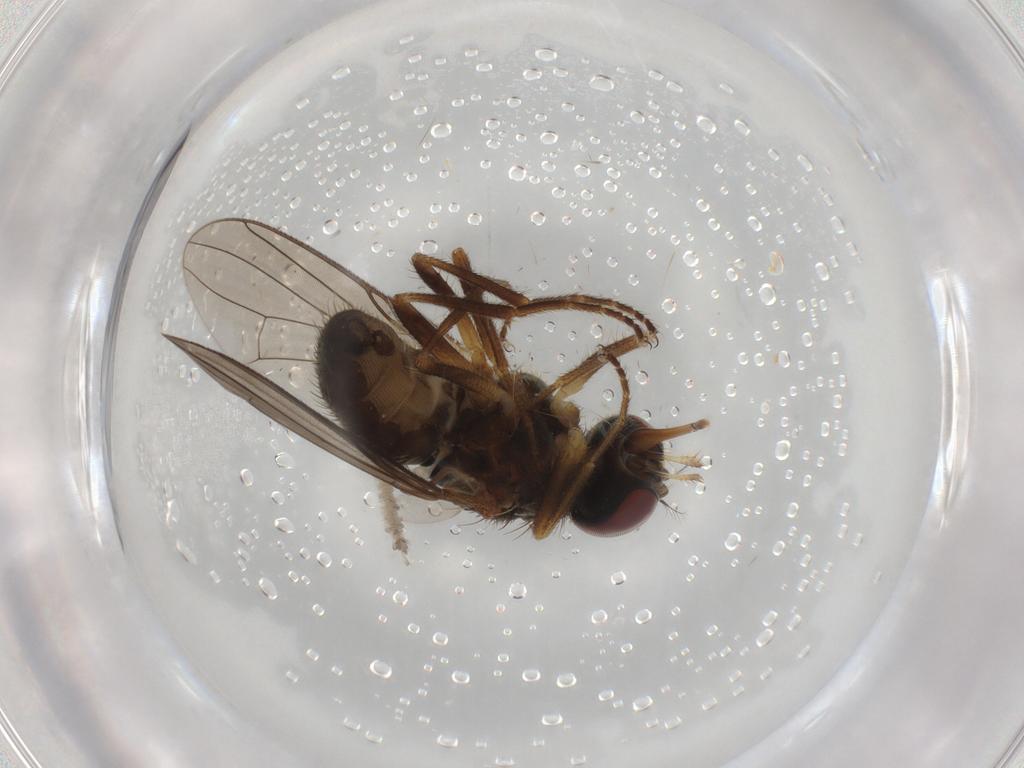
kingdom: Animalia
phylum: Arthropoda
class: Insecta
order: Diptera
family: Muscidae
